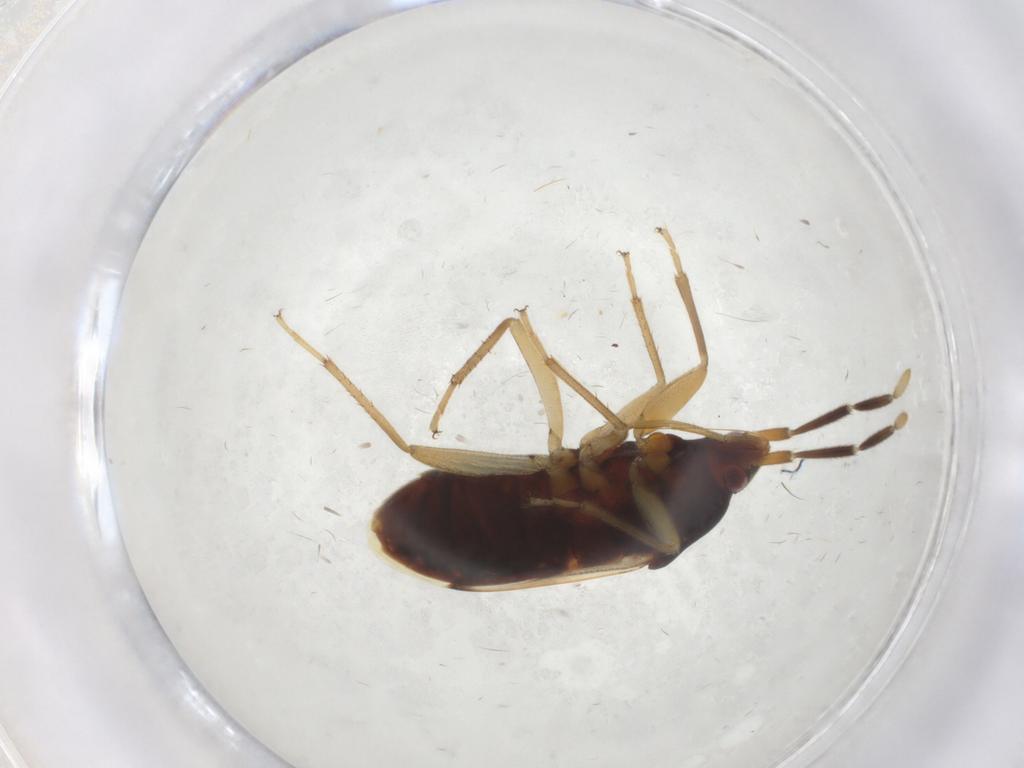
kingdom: Animalia
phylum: Arthropoda
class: Insecta
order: Hemiptera
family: Rhyparochromidae
